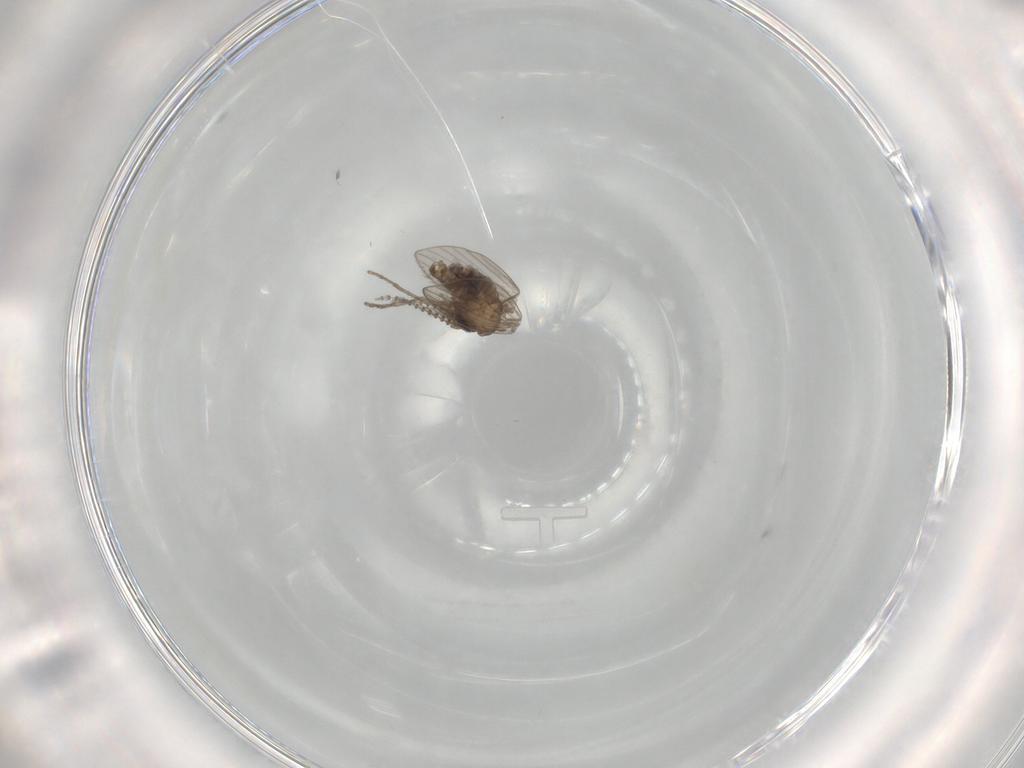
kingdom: Animalia
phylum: Arthropoda
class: Insecta
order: Diptera
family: Psychodidae
